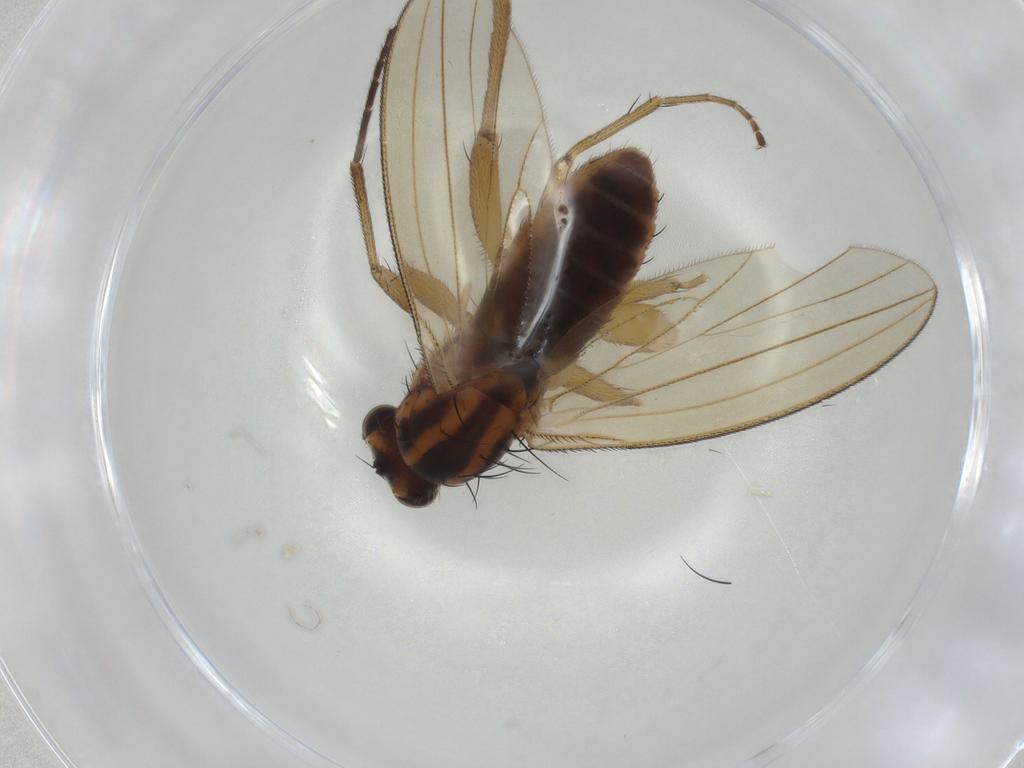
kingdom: Animalia
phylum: Arthropoda
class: Insecta
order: Diptera
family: Lonchopteridae
